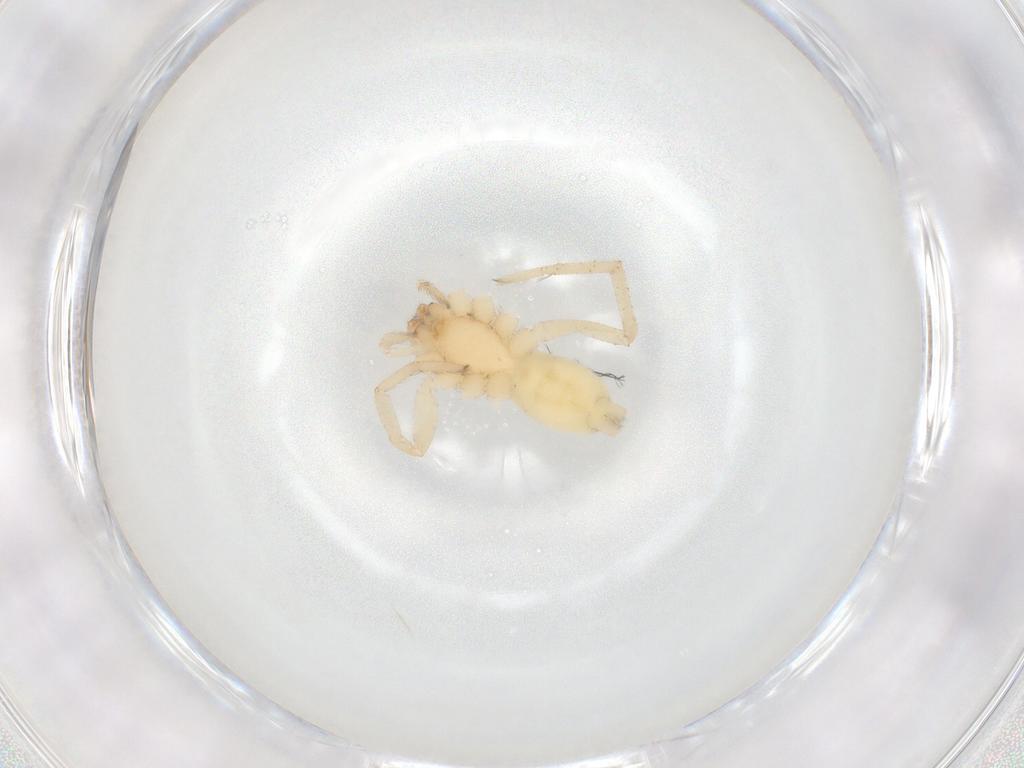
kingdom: Animalia
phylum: Arthropoda
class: Arachnida
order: Araneae
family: Gnaphosidae
